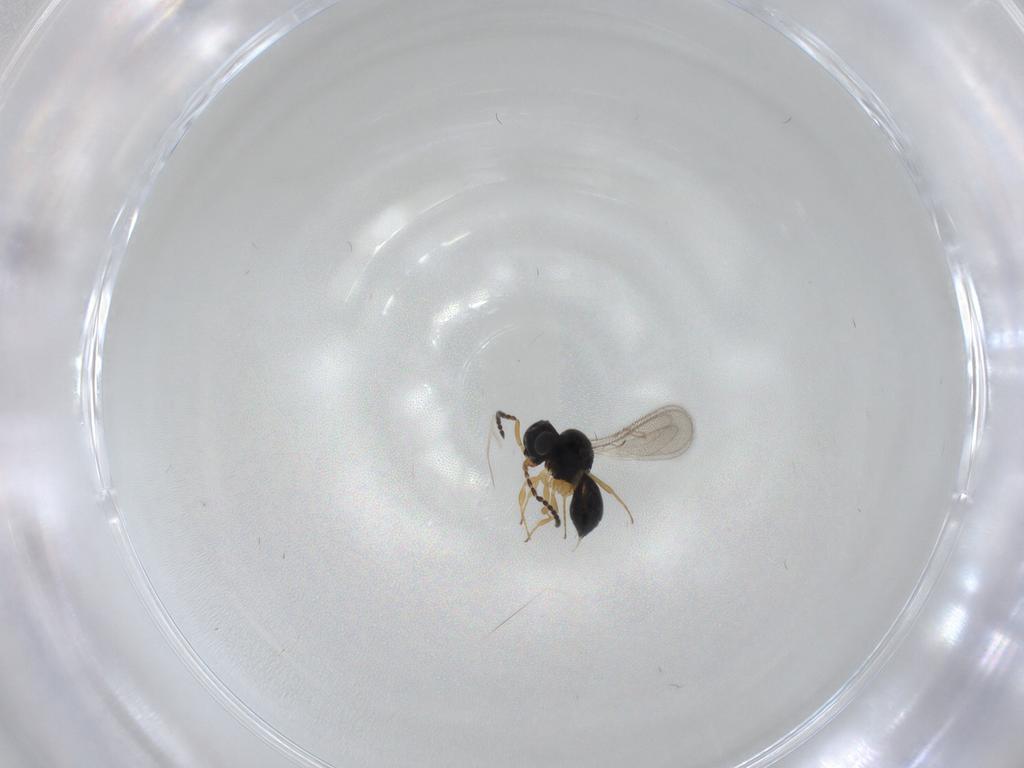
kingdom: Animalia
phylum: Arthropoda
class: Insecta
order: Hymenoptera
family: Scelionidae
